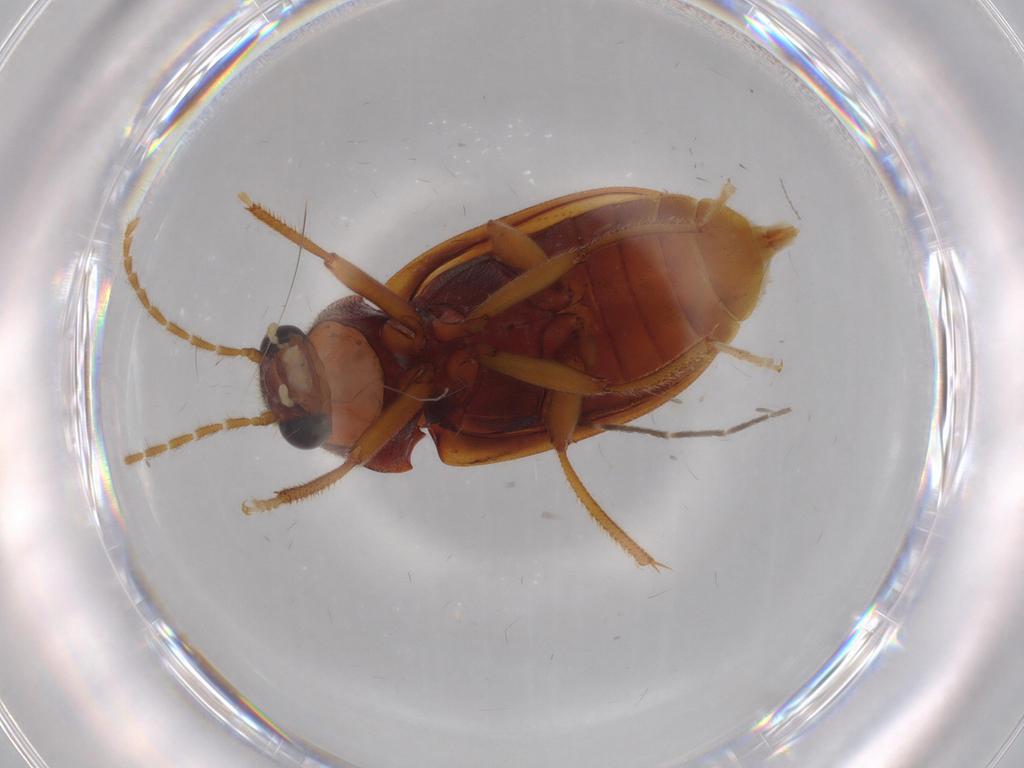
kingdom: Animalia
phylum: Arthropoda
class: Insecta
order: Coleoptera
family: Ptilodactylidae
